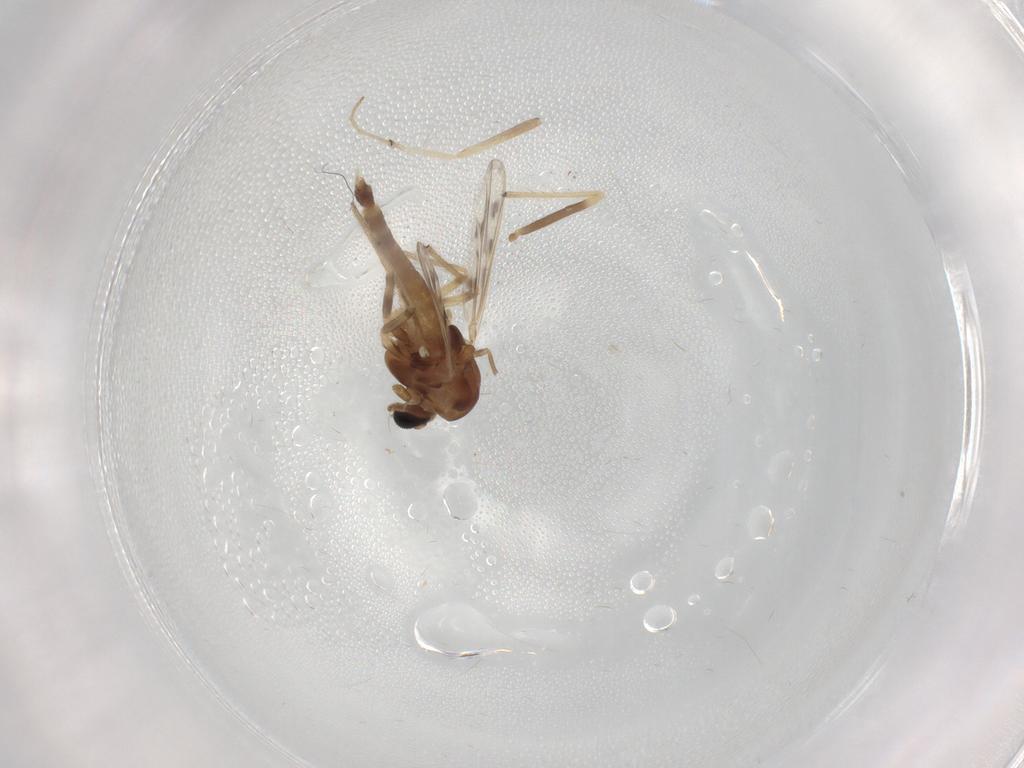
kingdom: Animalia
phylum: Arthropoda
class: Insecta
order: Diptera
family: Chironomidae
